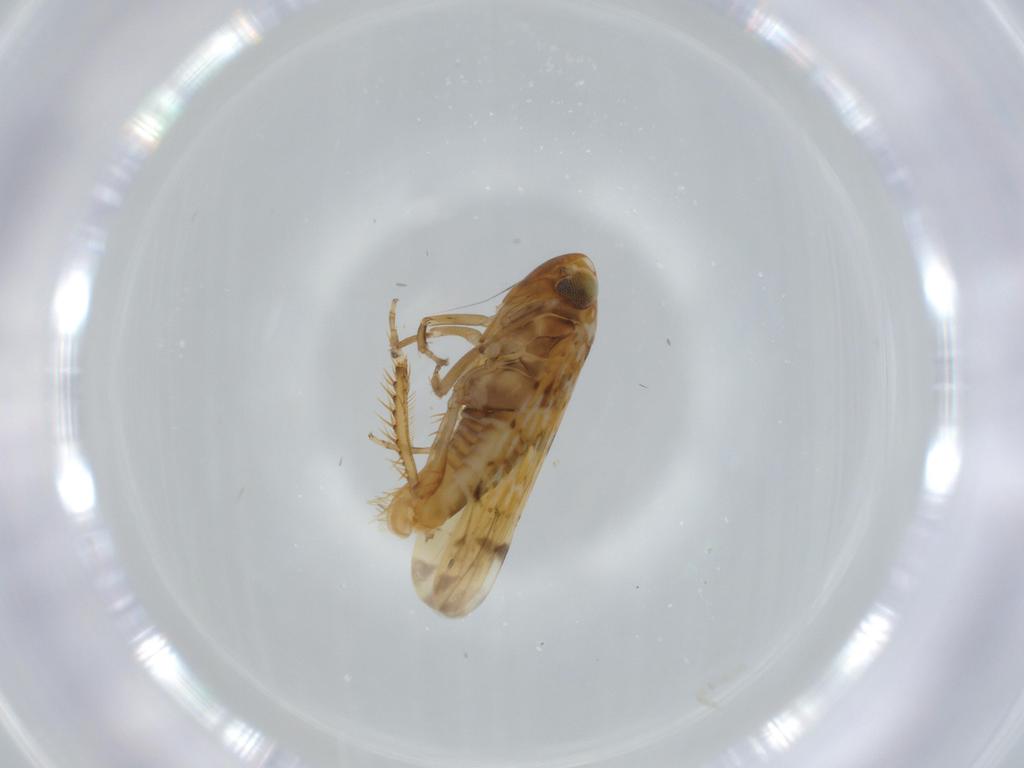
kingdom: Animalia
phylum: Arthropoda
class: Insecta
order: Hemiptera
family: Cicadellidae
